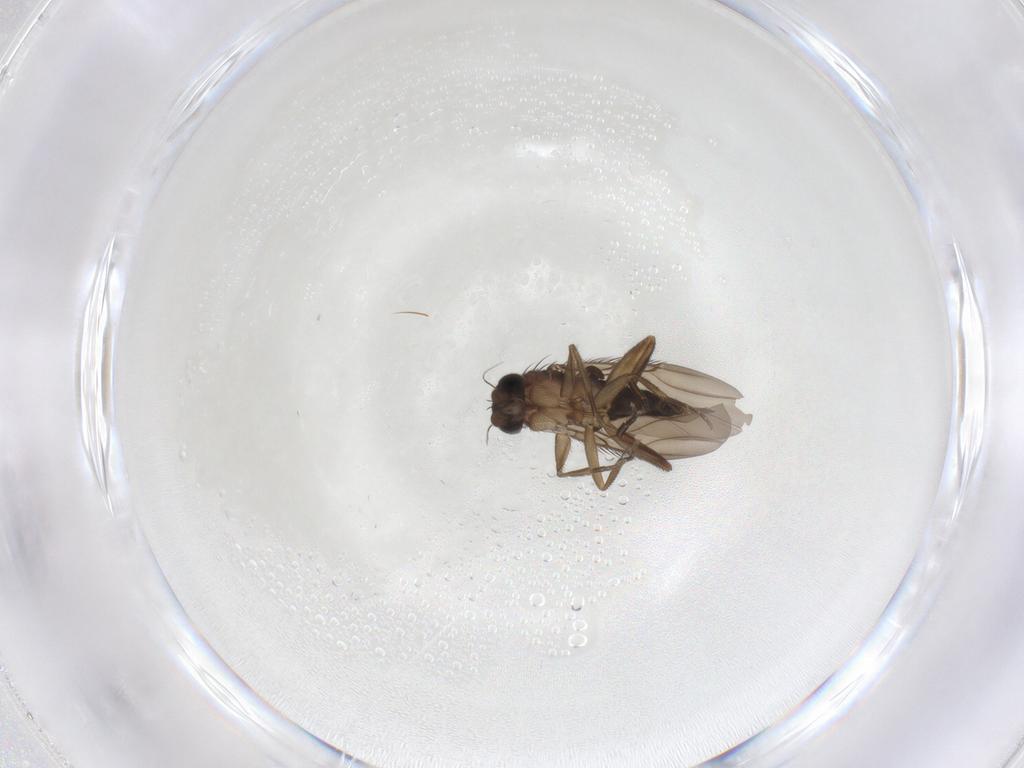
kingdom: Animalia
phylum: Arthropoda
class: Insecta
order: Diptera
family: Phoridae
